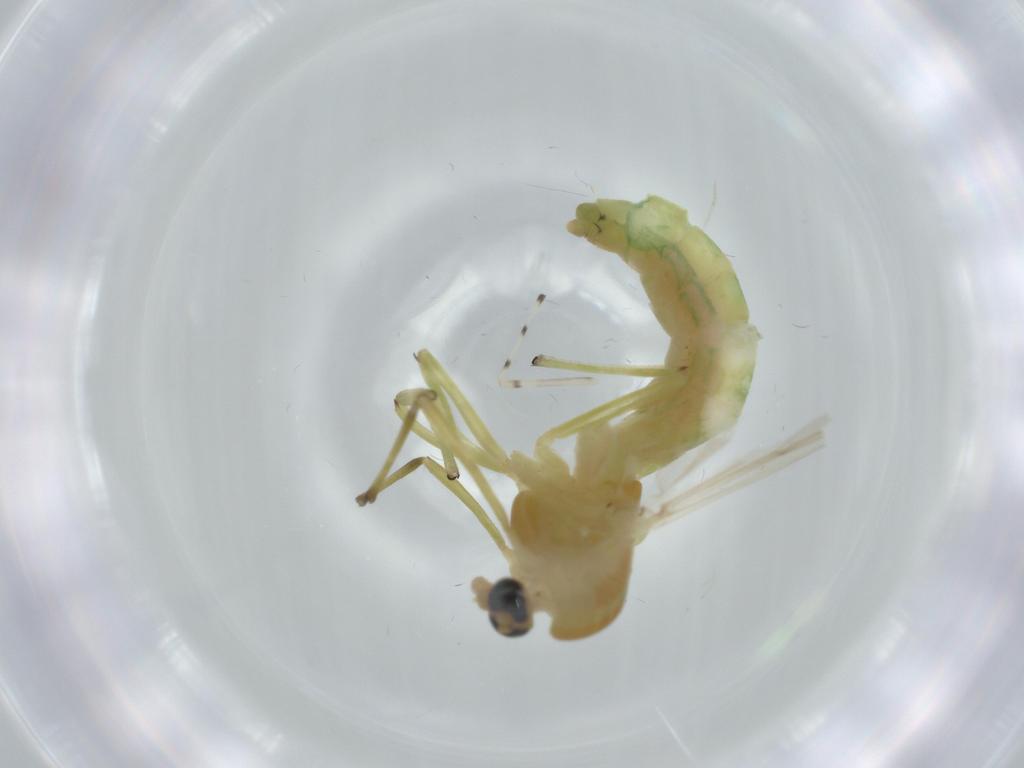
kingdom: Animalia
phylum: Arthropoda
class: Insecta
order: Diptera
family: Chironomidae
